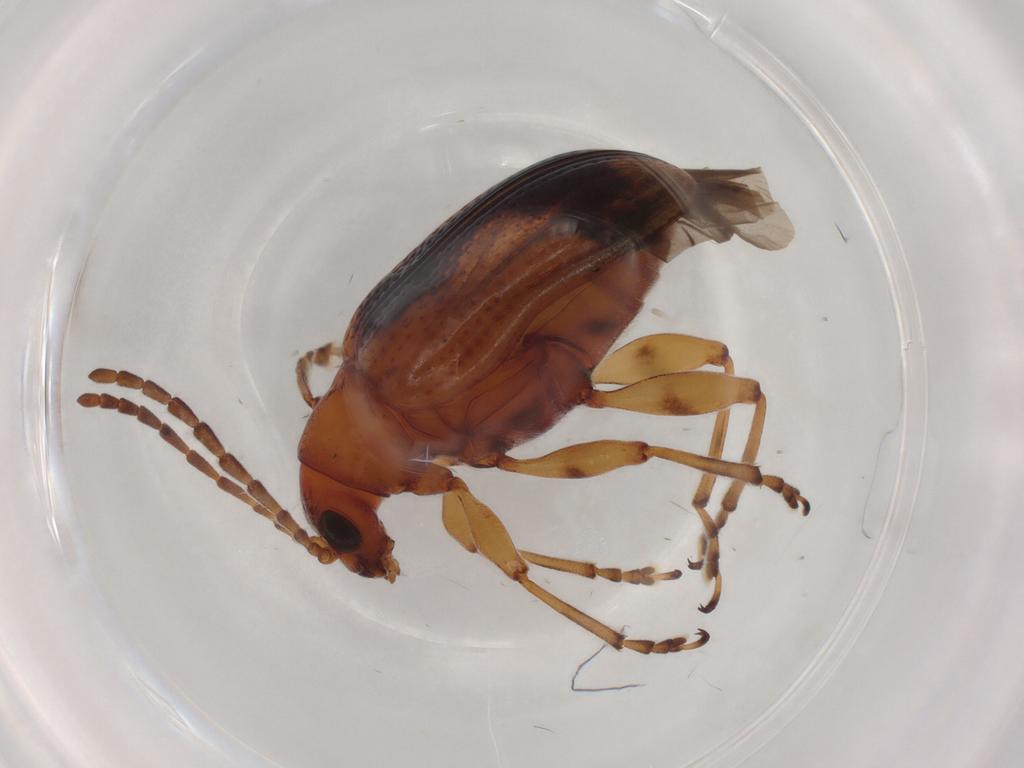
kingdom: Animalia
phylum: Arthropoda
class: Insecta
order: Coleoptera
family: Chrysomelidae
